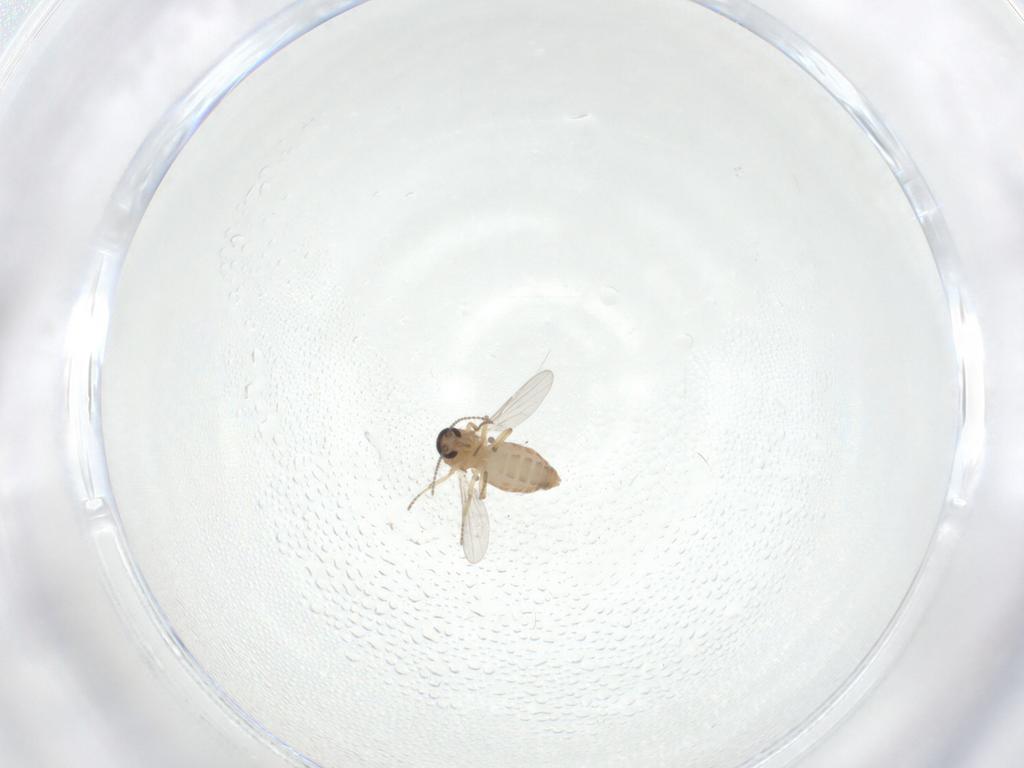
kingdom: Animalia
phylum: Arthropoda
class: Insecta
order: Diptera
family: Ceratopogonidae
